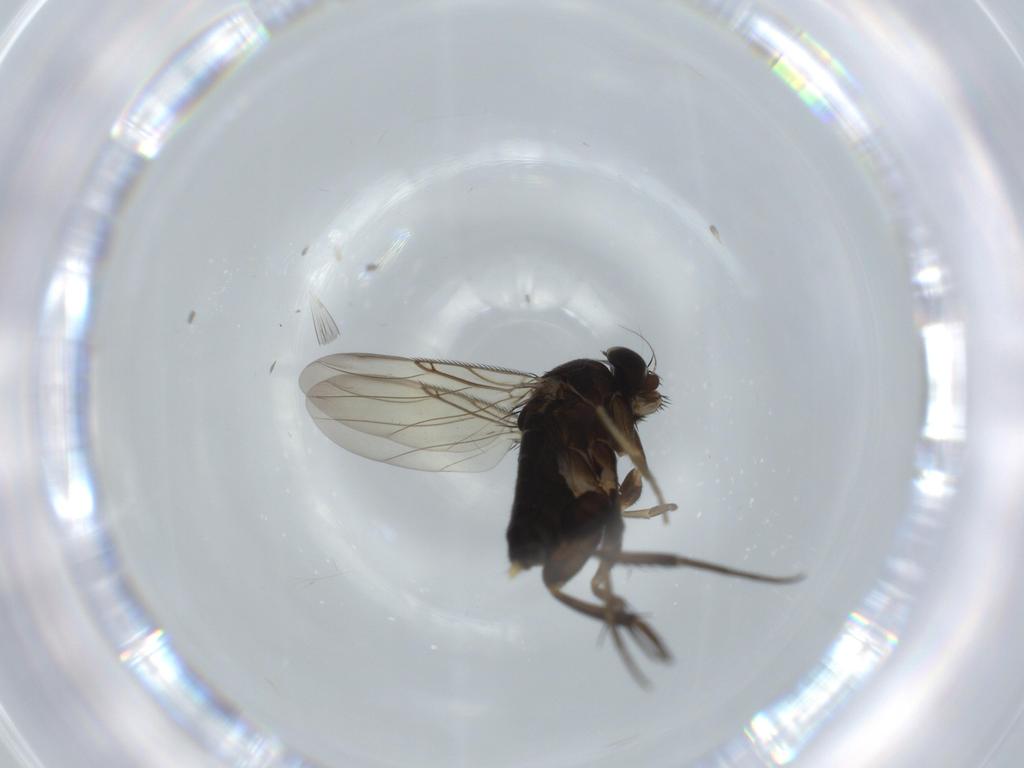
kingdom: Animalia
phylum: Arthropoda
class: Insecta
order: Diptera
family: Phoridae
